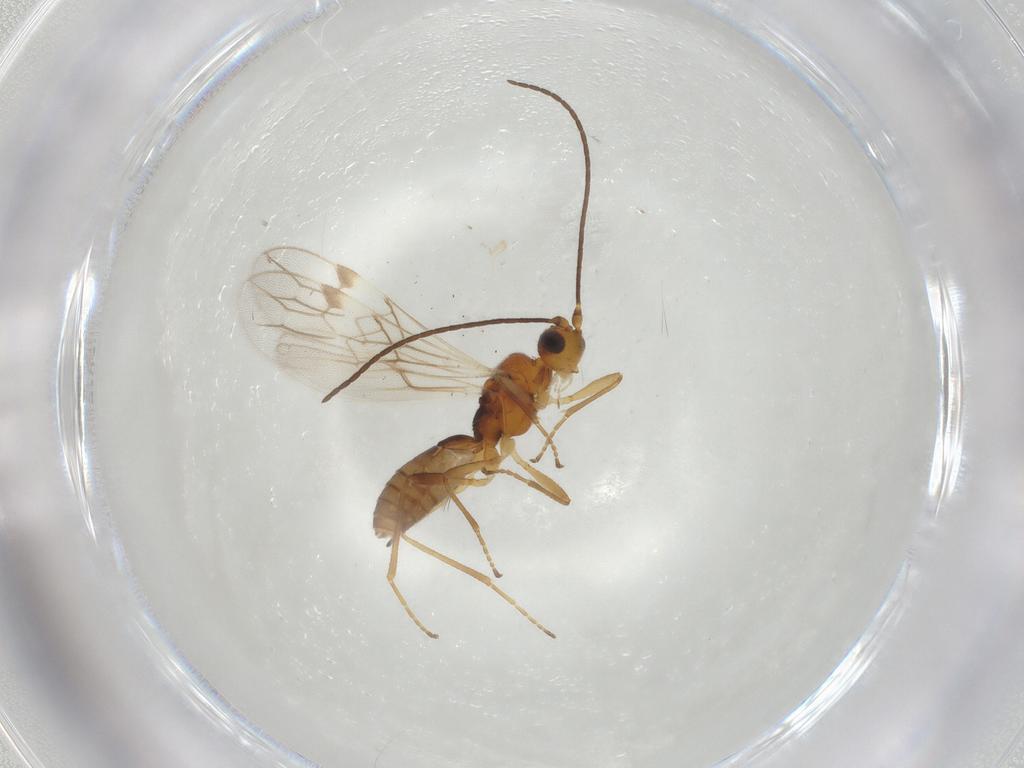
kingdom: Animalia
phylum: Arthropoda
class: Insecta
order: Hymenoptera
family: Braconidae
